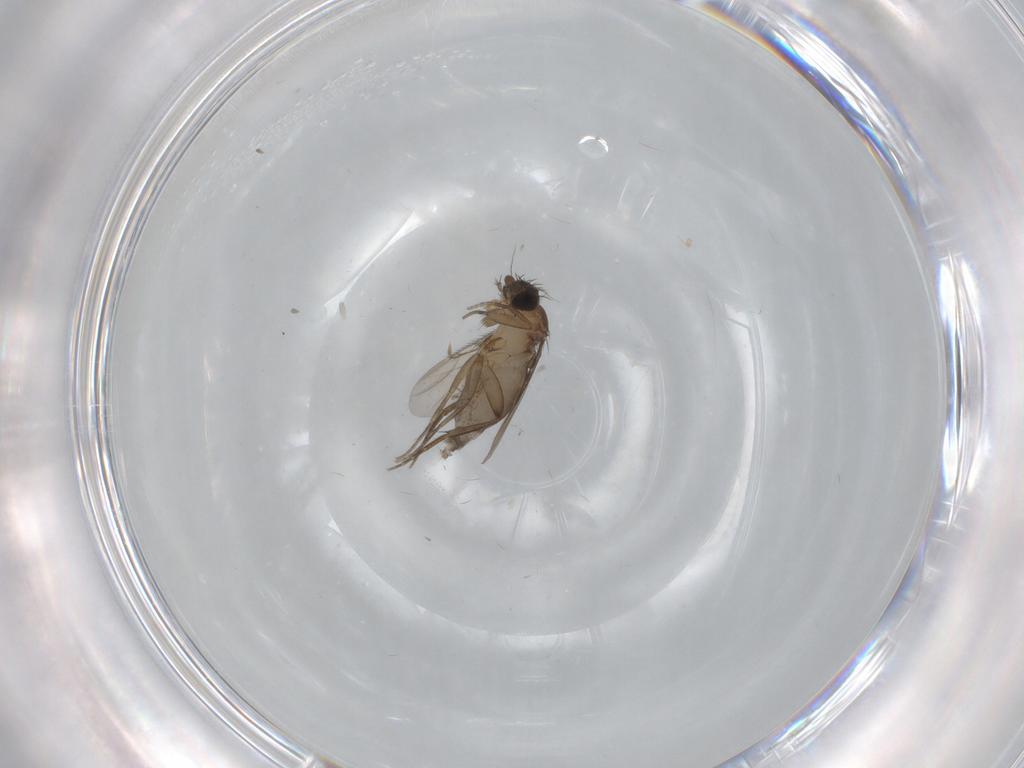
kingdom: Animalia
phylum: Arthropoda
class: Insecta
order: Diptera
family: Phoridae
